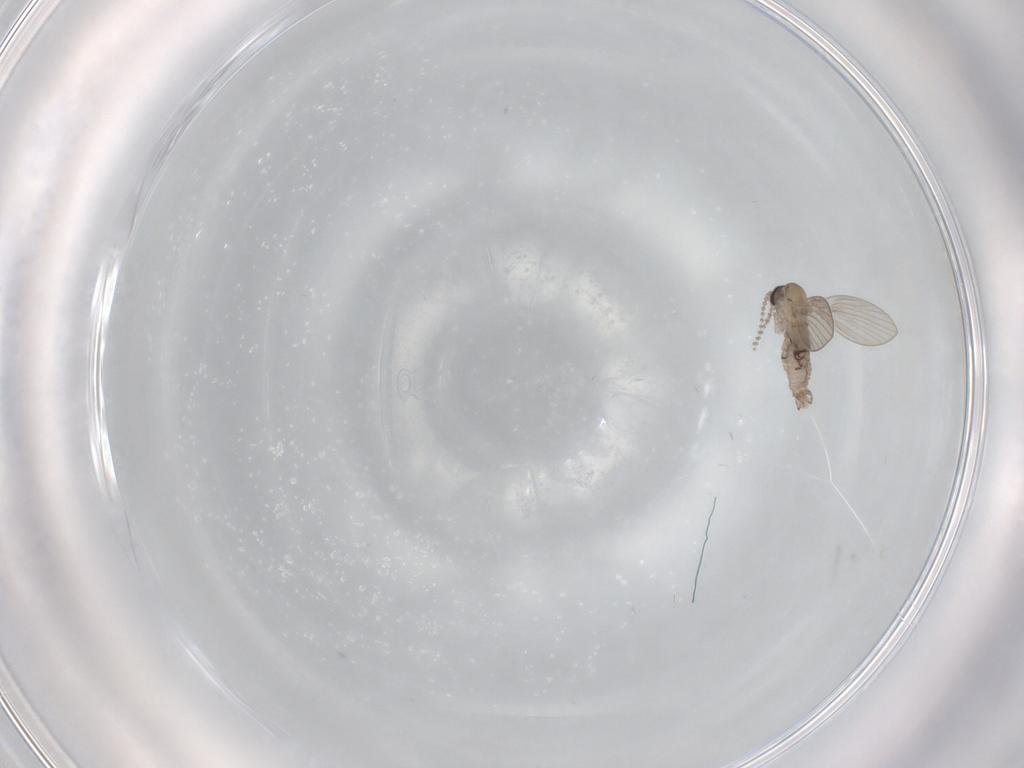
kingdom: Animalia
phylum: Arthropoda
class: Insecta
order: Diptera
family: Psychodidae
